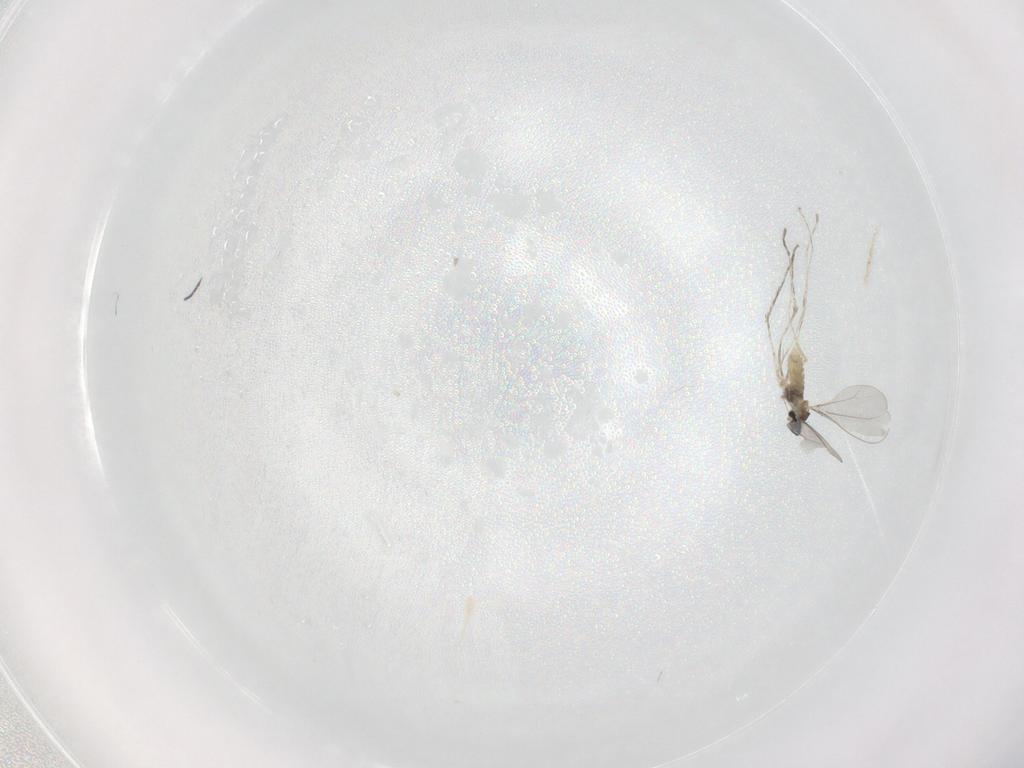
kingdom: Animalia
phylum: Arthropoda
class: Insecta
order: Diptera
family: Cecidomyiidae
